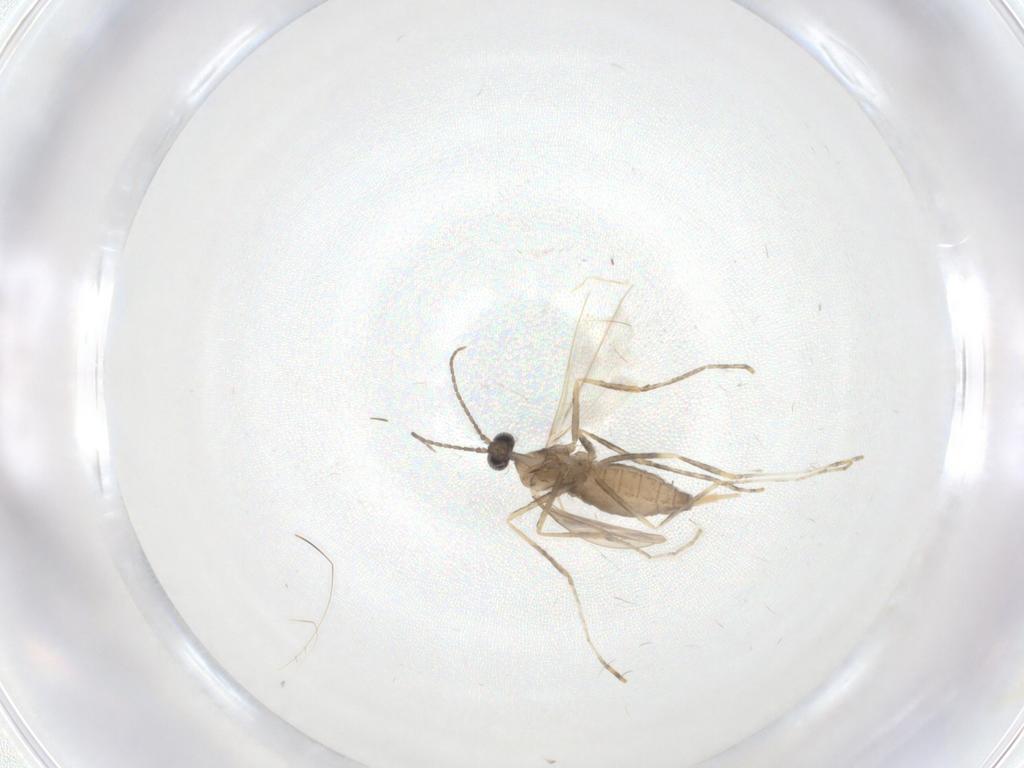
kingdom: Animalia
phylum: Arthropoda
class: Insecta
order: Diptera
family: Cecidomyiidae
